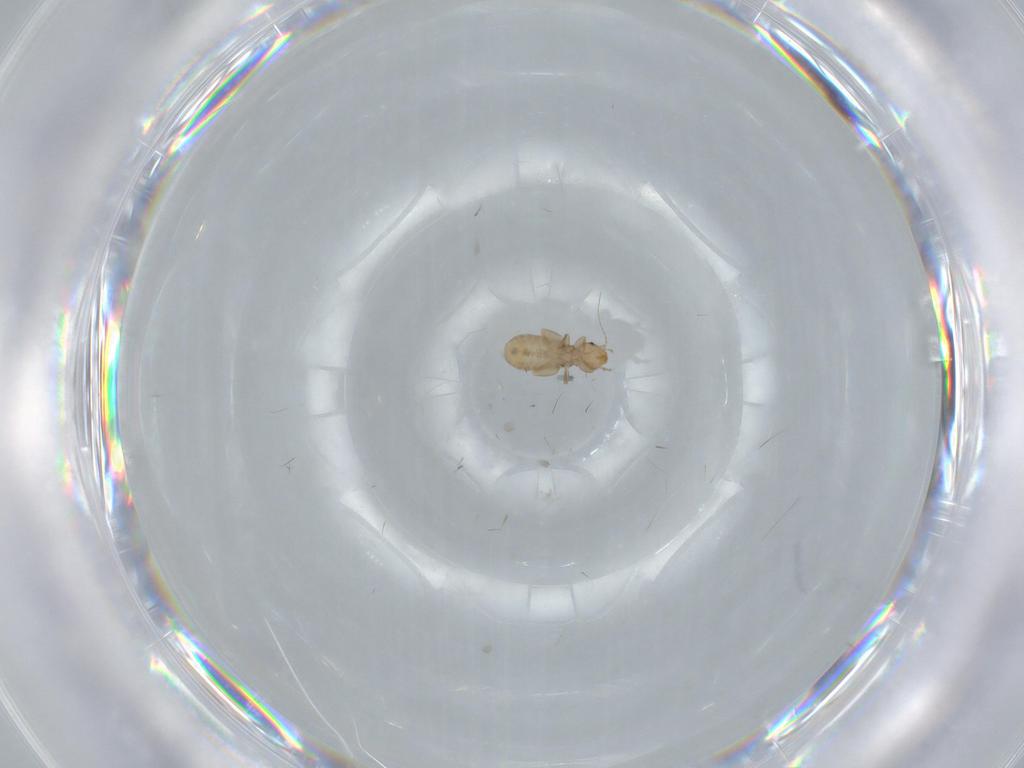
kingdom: Animalia
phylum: Arthropoda
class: Insecta
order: Psocodea
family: Liposcelididae
